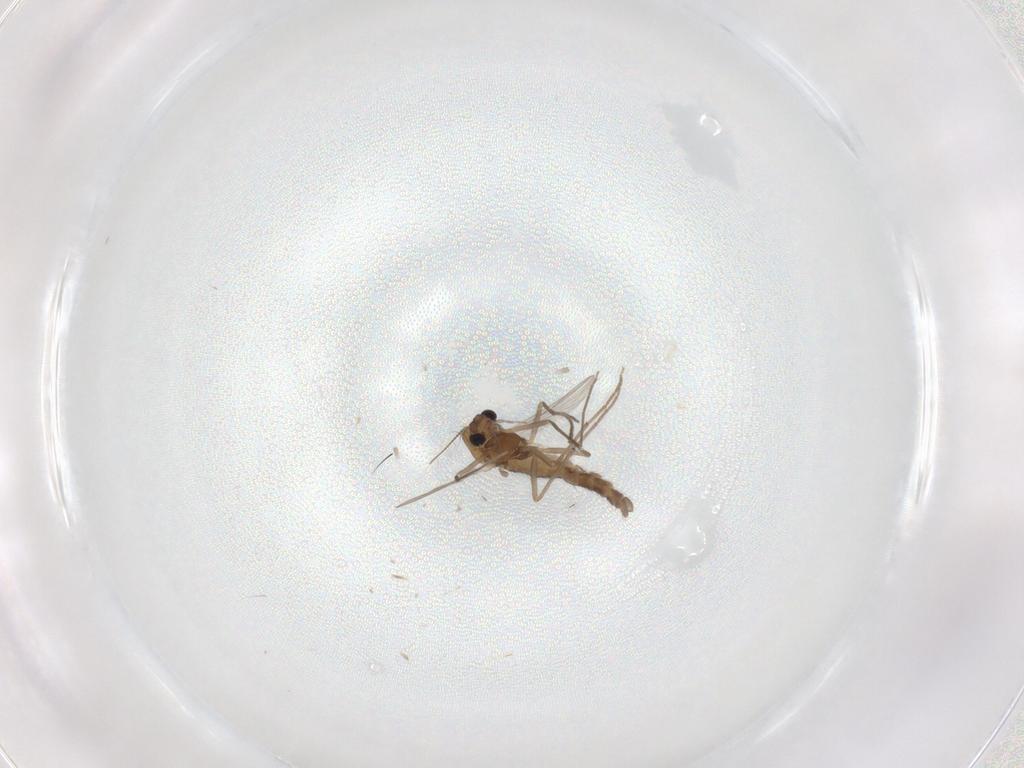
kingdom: Animalia
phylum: Arthropoda
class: Insecta
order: Diptera
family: Chironomidae
